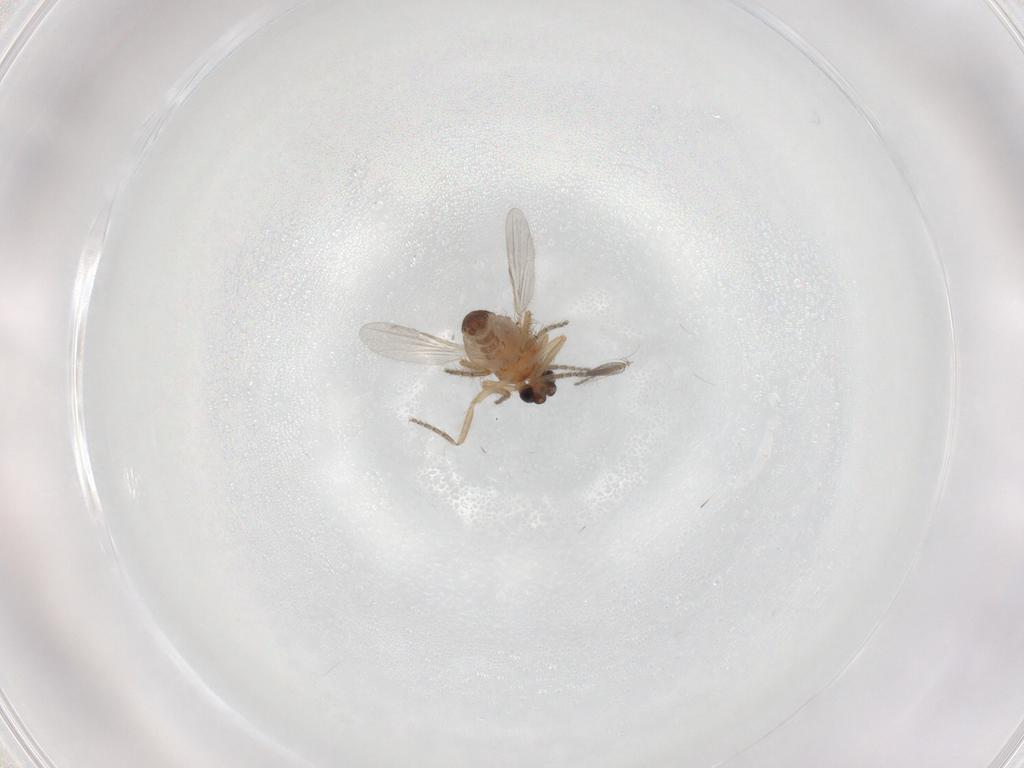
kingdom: Animalia
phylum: Arthropoda
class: Insecta
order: Diptera
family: Ceratopogonidae
